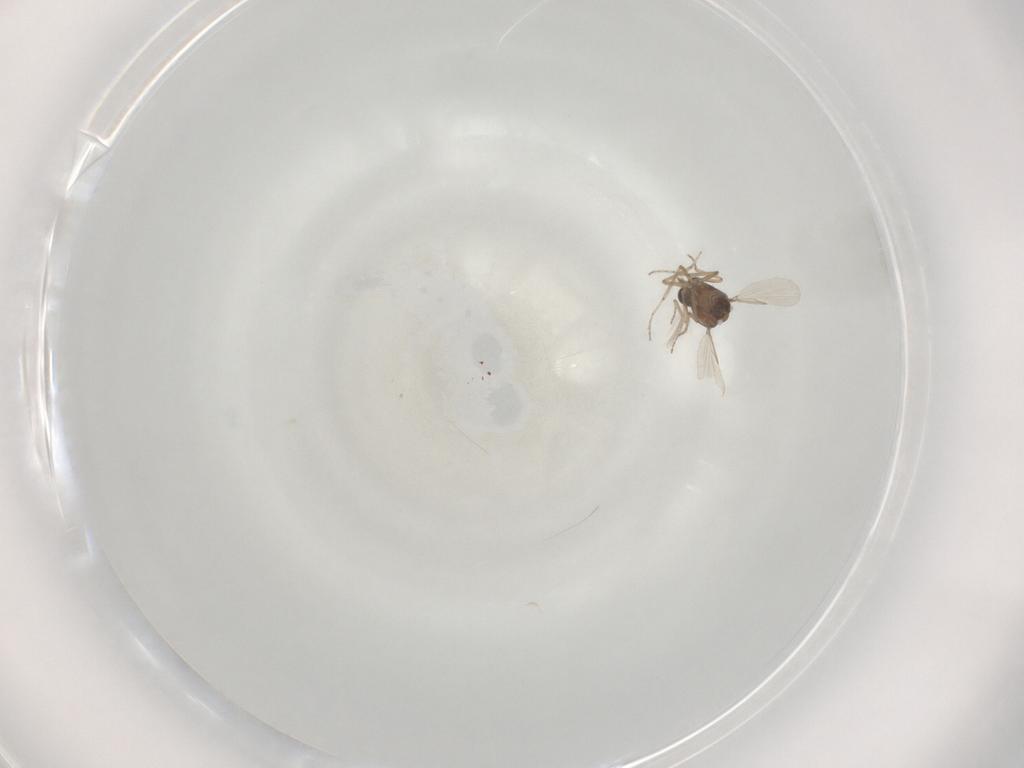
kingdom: Animalia
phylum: Arthropoda
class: Insecta
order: Diptera
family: Ceratopogonidae
